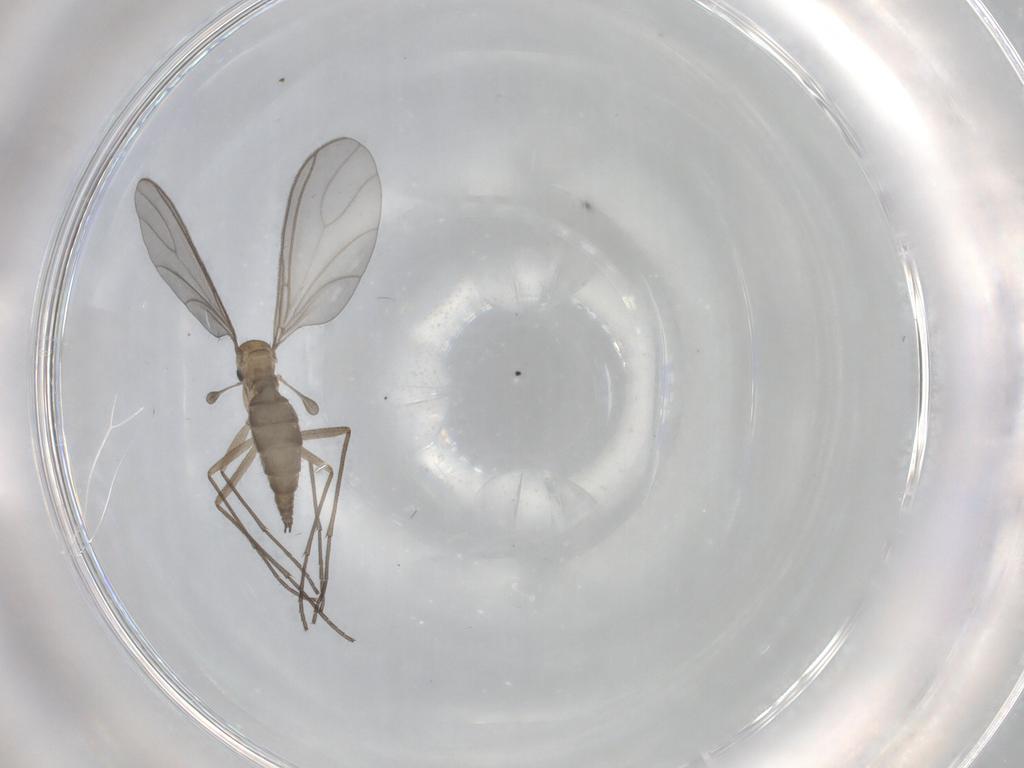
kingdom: Animalia
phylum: Arthropoda
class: Insecta
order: Diptera
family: Sciaridae
